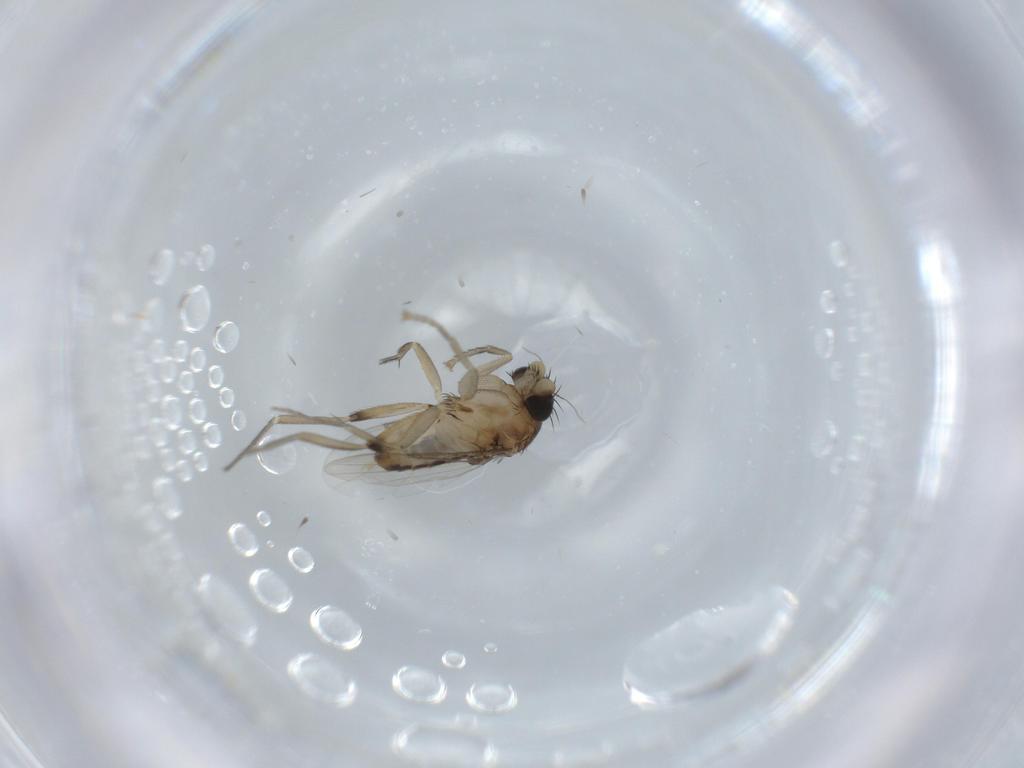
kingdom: Animalia
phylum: Arthropoda
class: Insecta
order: Diptera
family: Phoridae
